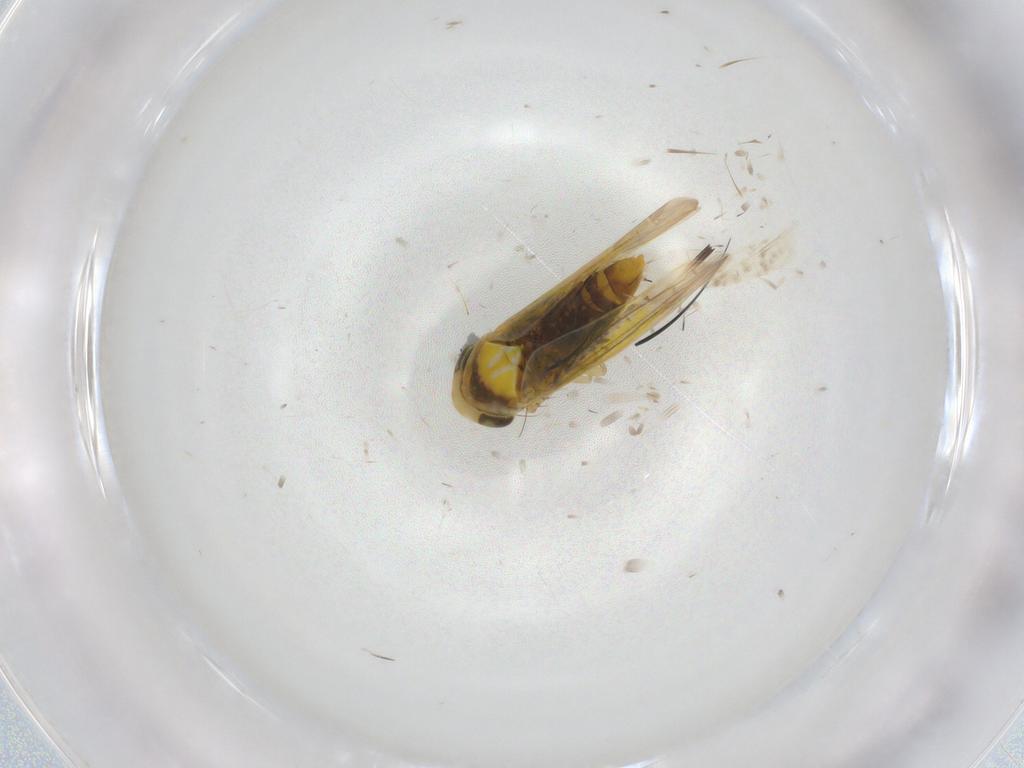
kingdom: Animalia
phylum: Arthropoda
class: Insecta
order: Hemiptera
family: Cicadellidae
